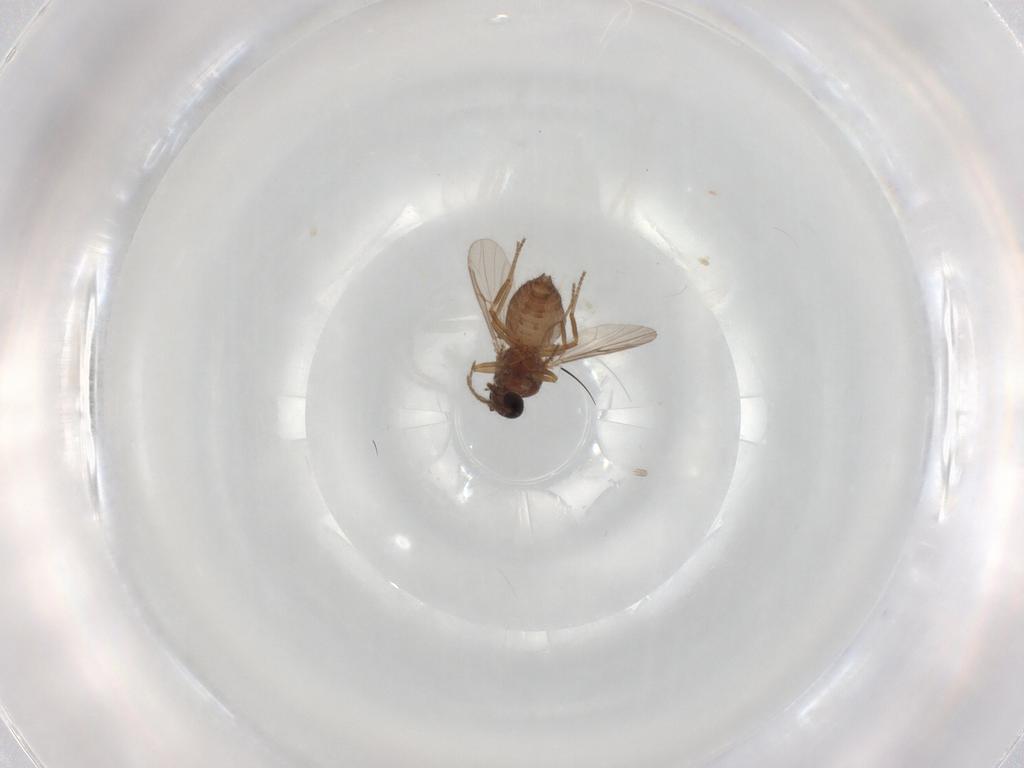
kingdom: Animalia
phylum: Arthropoda
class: Insecta
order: Diptera
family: Ceratopogonidae
